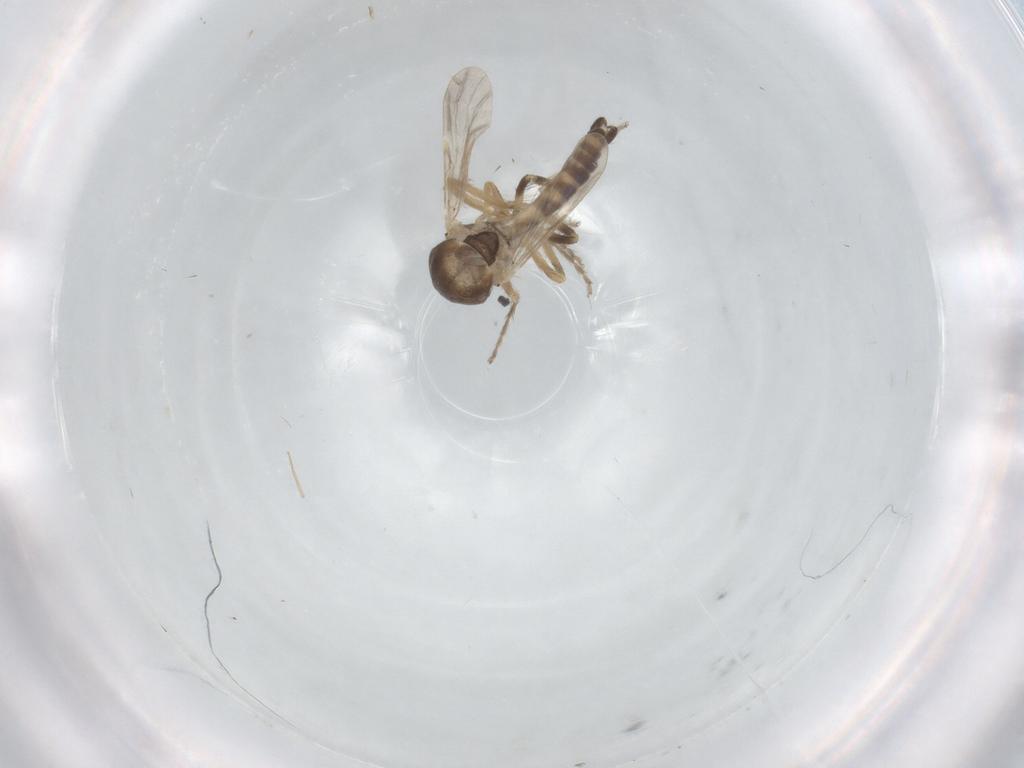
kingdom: Animalia
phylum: Arthropoda
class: Insecta
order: Diptera
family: Ceratopogonidae
